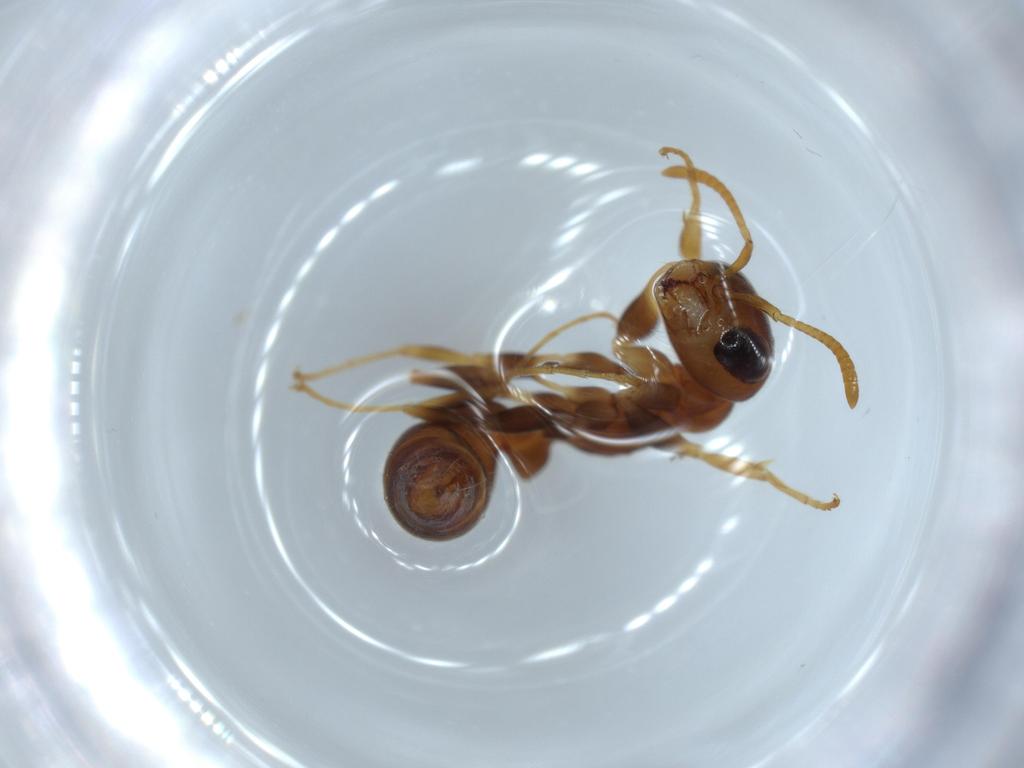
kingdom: Animalia
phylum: Arthropoda
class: Insecta
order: Hymenoptera
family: Formicidae
